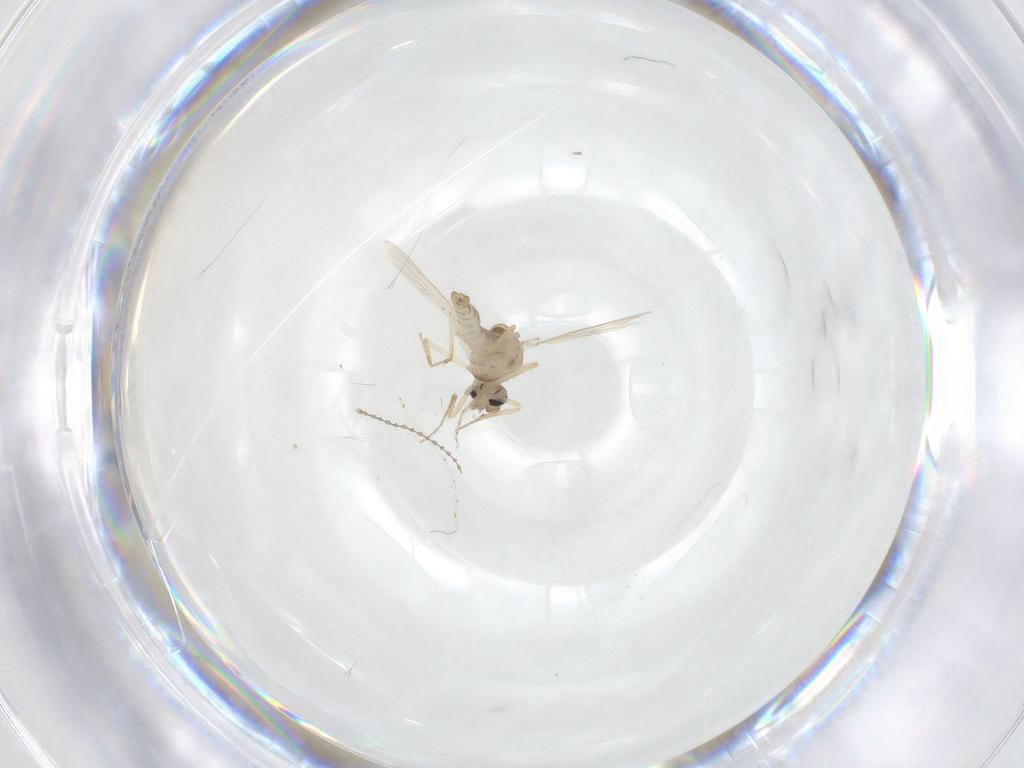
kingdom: Animalia
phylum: Arthropoda
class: Insecta
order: Diptera
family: Ceratopogonidae
